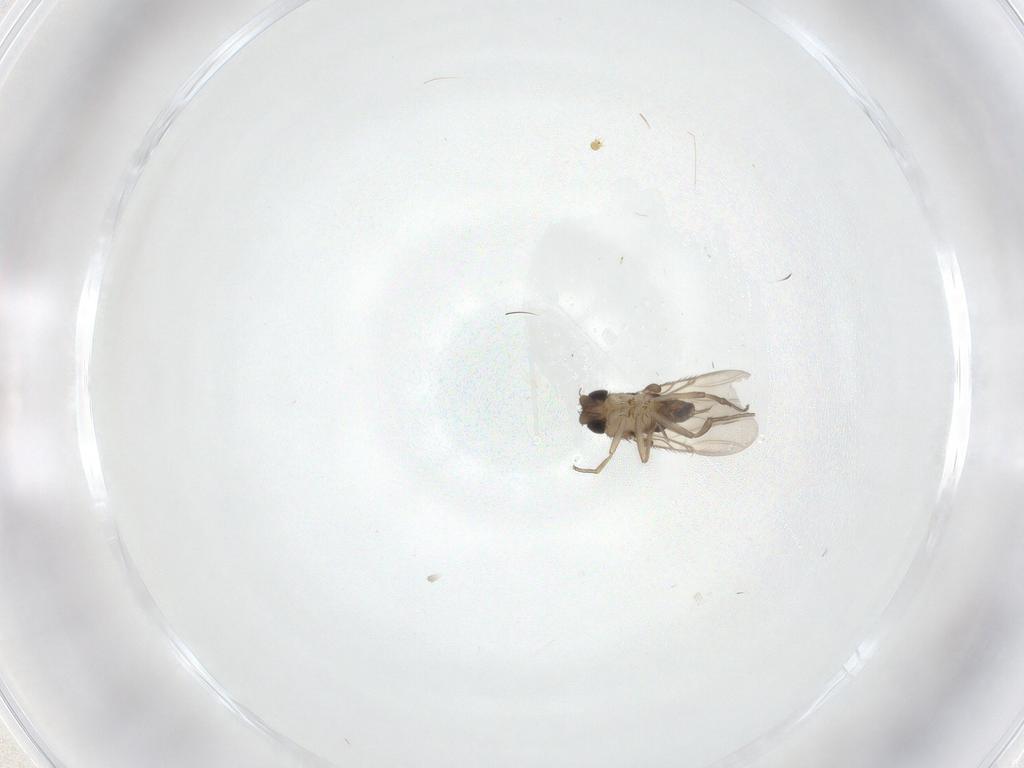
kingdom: Animalia
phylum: Arthropoda
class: Insecta
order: Diptera
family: Phoridae
